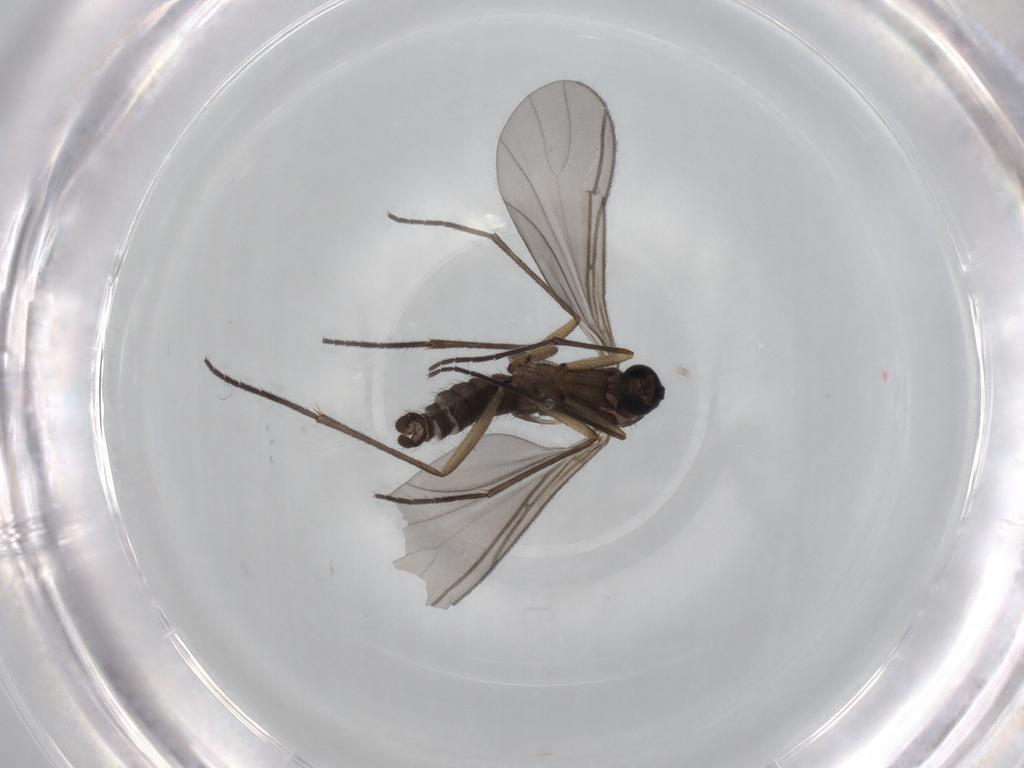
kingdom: Animalia
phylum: Arthropoda
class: Insecta
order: Diptera
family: Sciaridae
